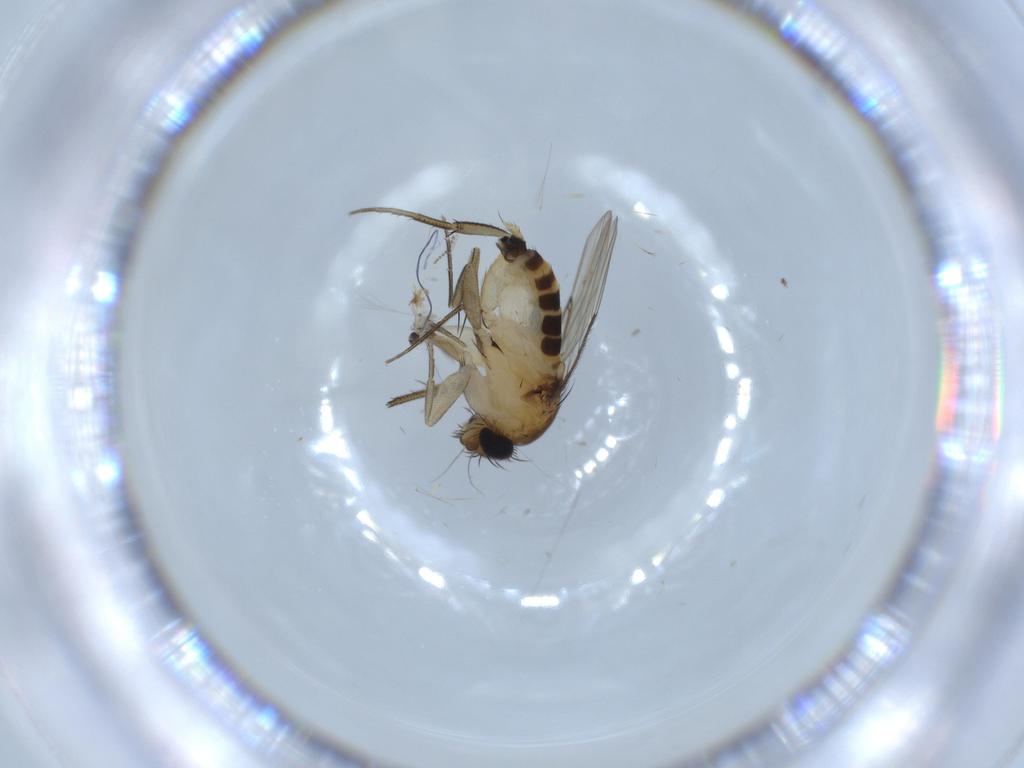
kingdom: Animalia
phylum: Arthropoda
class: Insecta
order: Diptera
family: Phoridae
